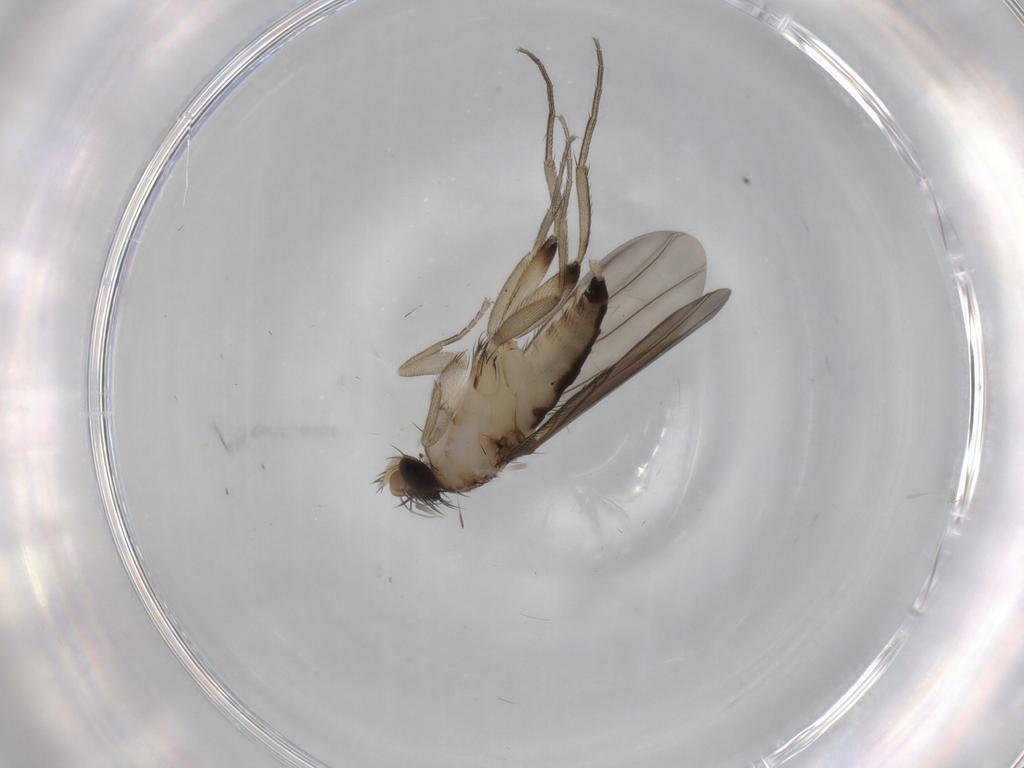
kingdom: Animalia
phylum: Arthropoda
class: Insecta
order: Diptera
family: Phoridae
